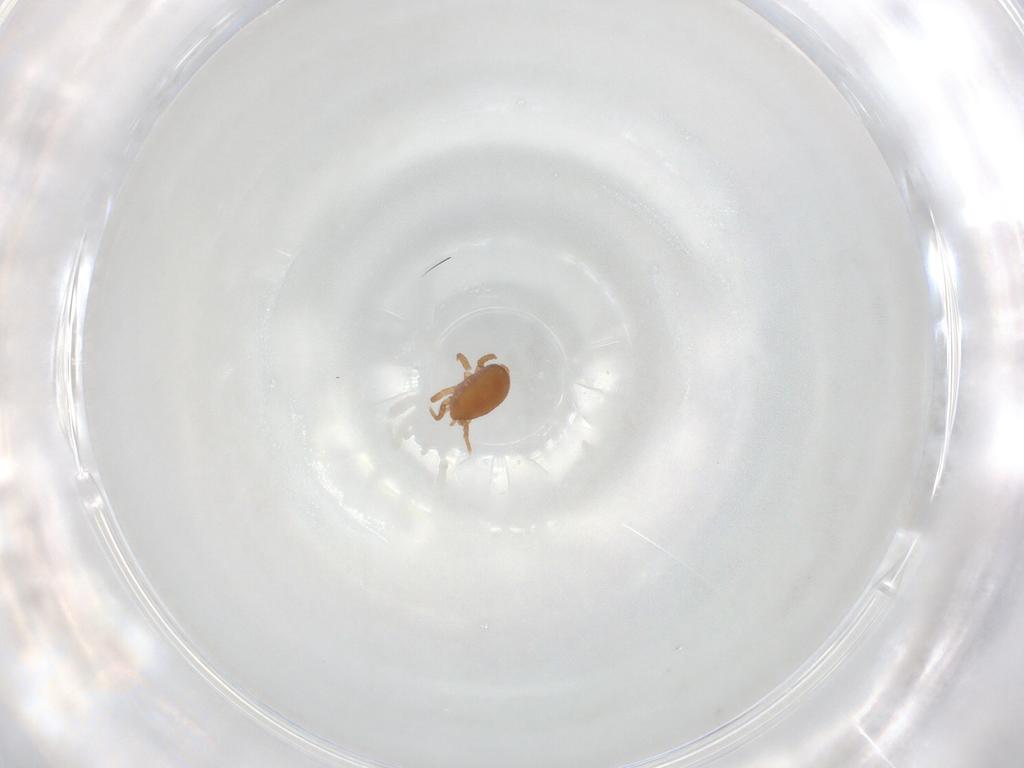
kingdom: Animalia
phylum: Arthropoda
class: Arachnida
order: Mesostigmata
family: Eviphididae
